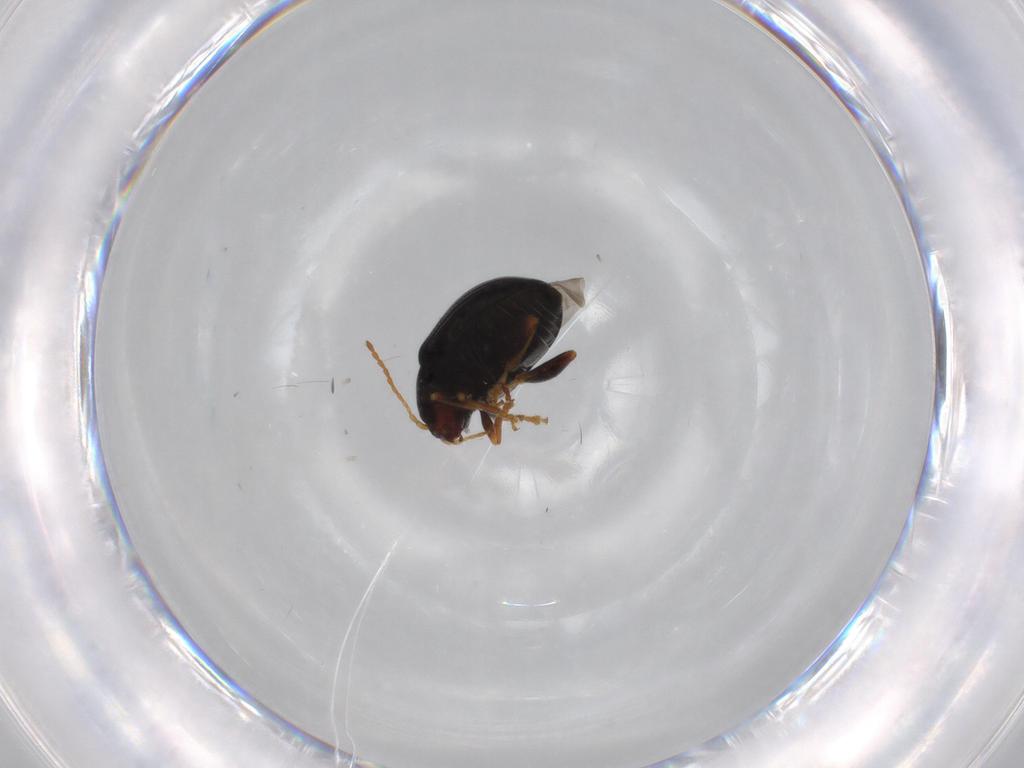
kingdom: Animalia
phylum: Arthropoda
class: Insecta
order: Coleoptera
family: Ptilodactylidae
